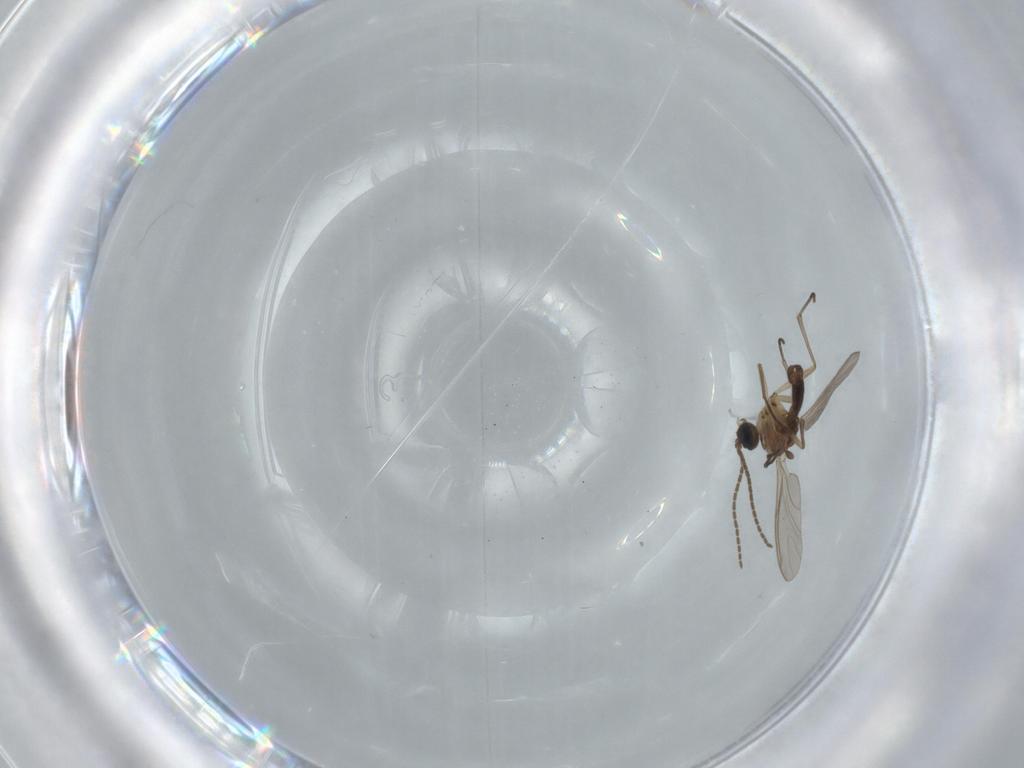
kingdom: Animalia
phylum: Arthropoda
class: Insecta
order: Diptera
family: Sciaridae
